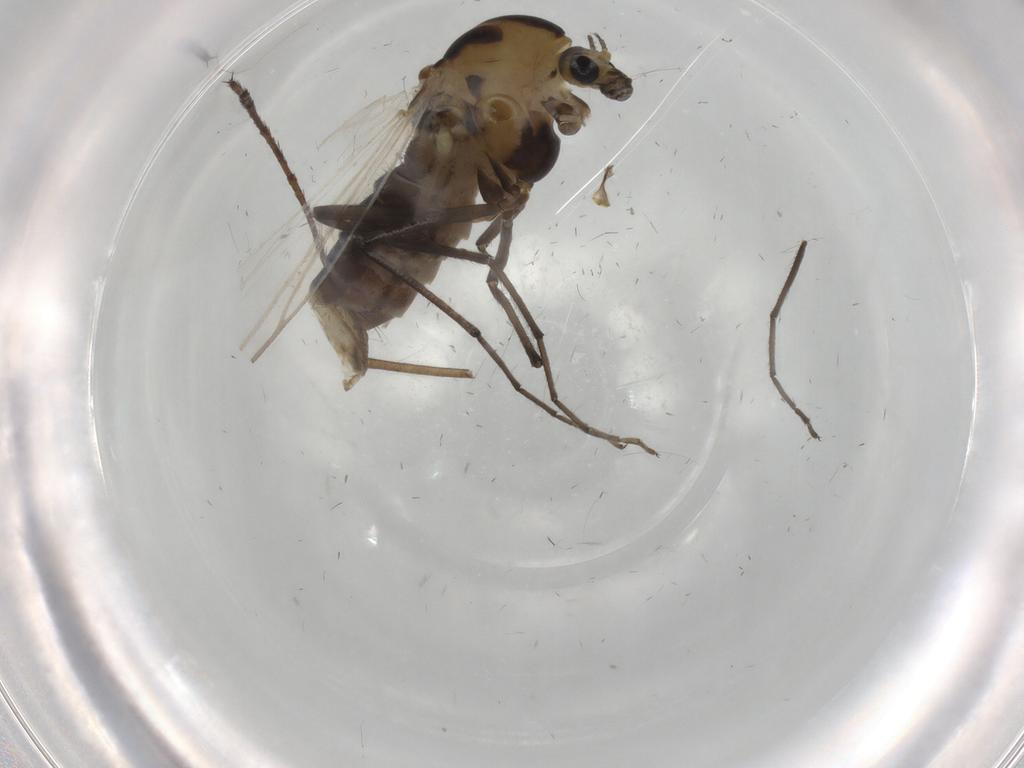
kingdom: Animalia
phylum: Arthropoda
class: Insecta
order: Diptera
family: Chironomidae
